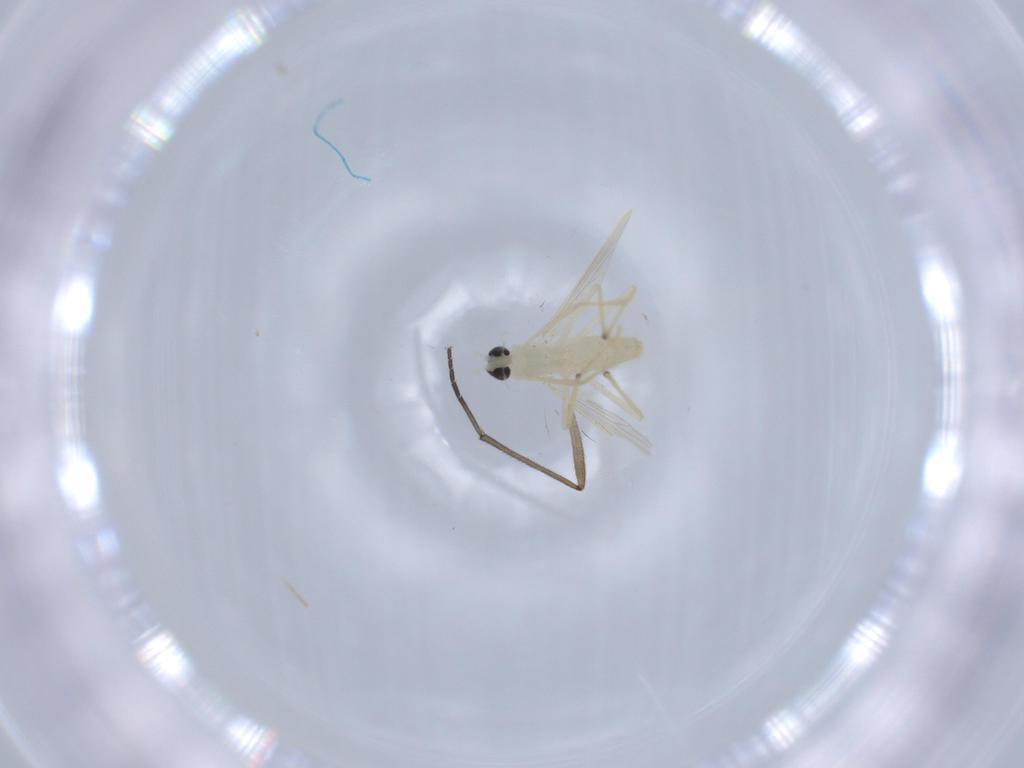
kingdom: Animalia
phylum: Arthropoda
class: Insecta
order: Diptera
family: Chironomidae
